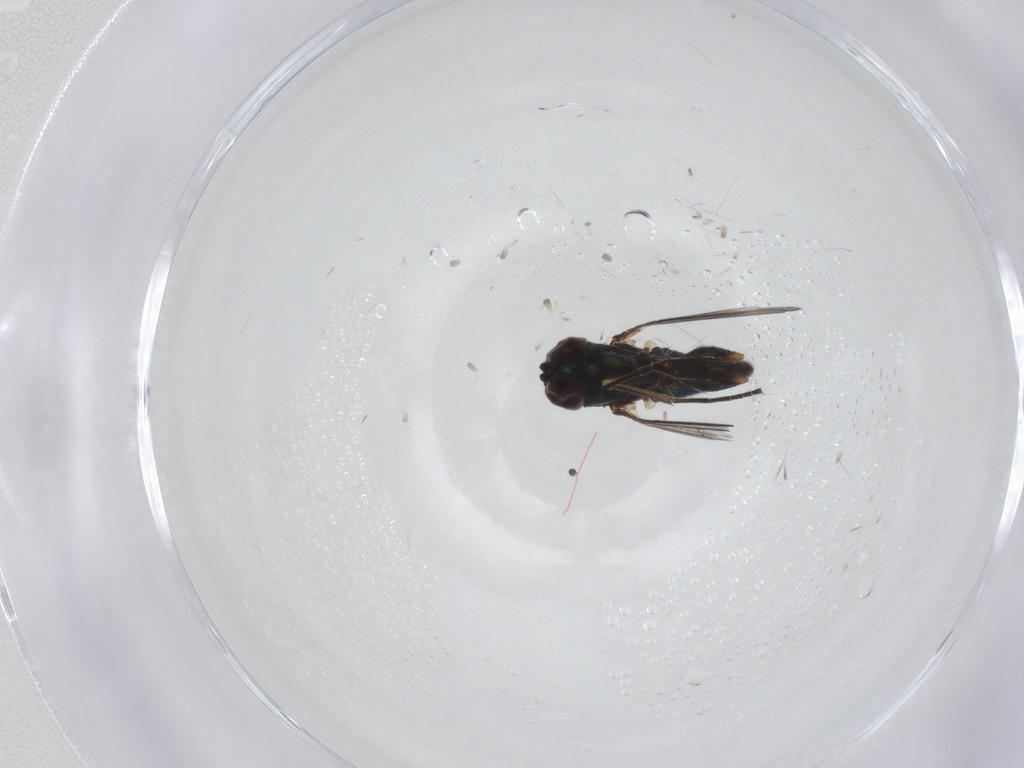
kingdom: Animalia
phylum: Arthropoda
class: Insecta
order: Diptera
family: Dolichopodidae
